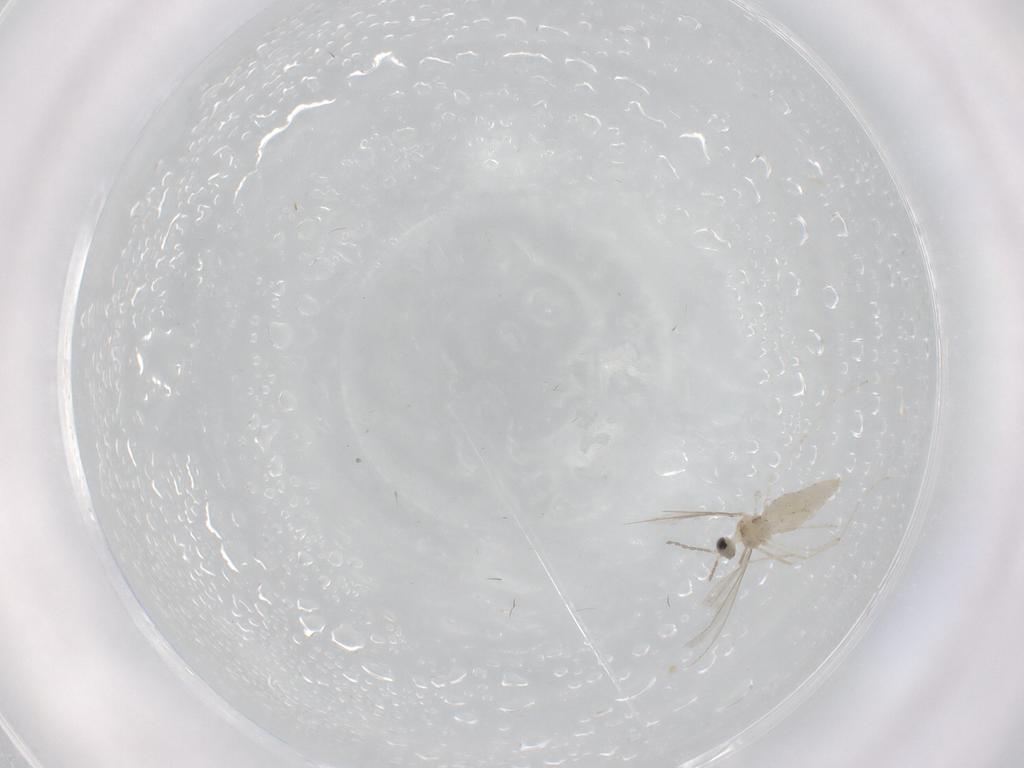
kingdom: Animalia
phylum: Arthropoda
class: Insecta
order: Diptera
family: Cecidomyiidae
